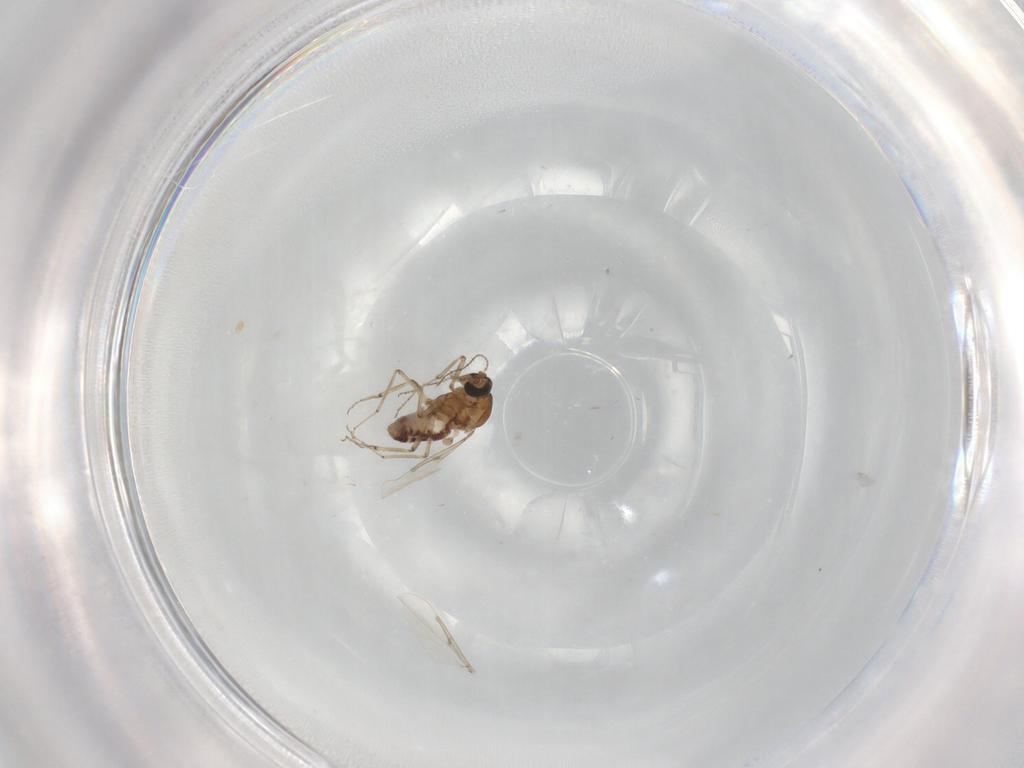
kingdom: Animalia
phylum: Arthropoda
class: Insecta
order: Diptera
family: Ceratopogonidae
